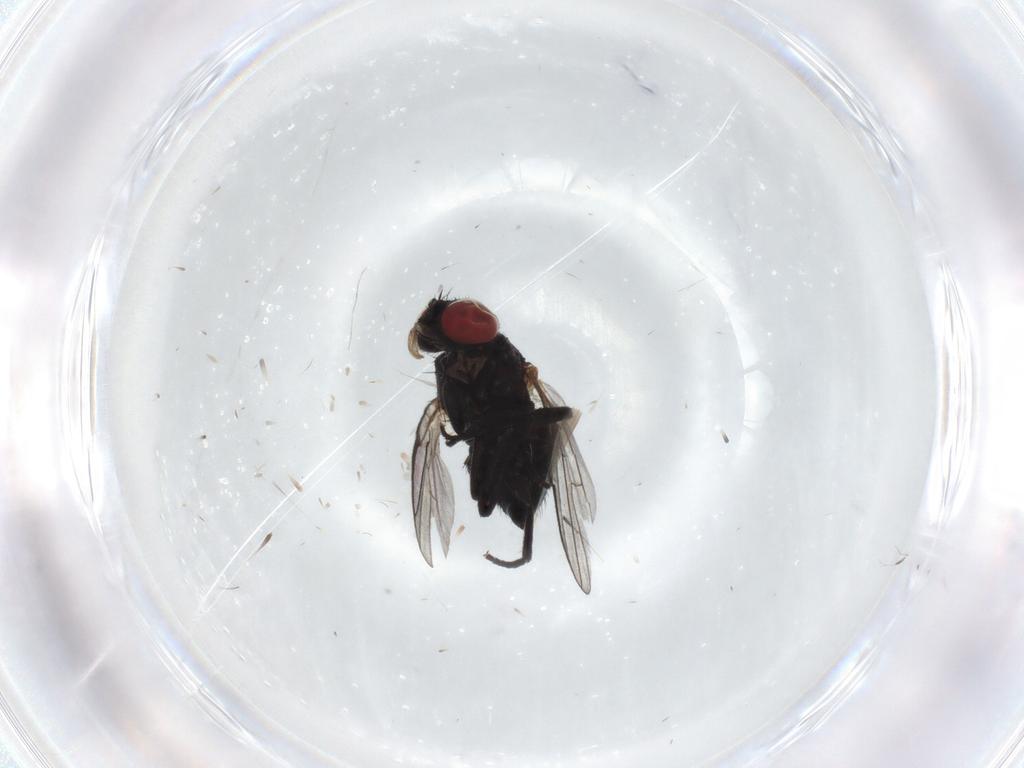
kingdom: Animalia
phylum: Arthropoda
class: Insecta
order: Diptera
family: Agromyzidae
